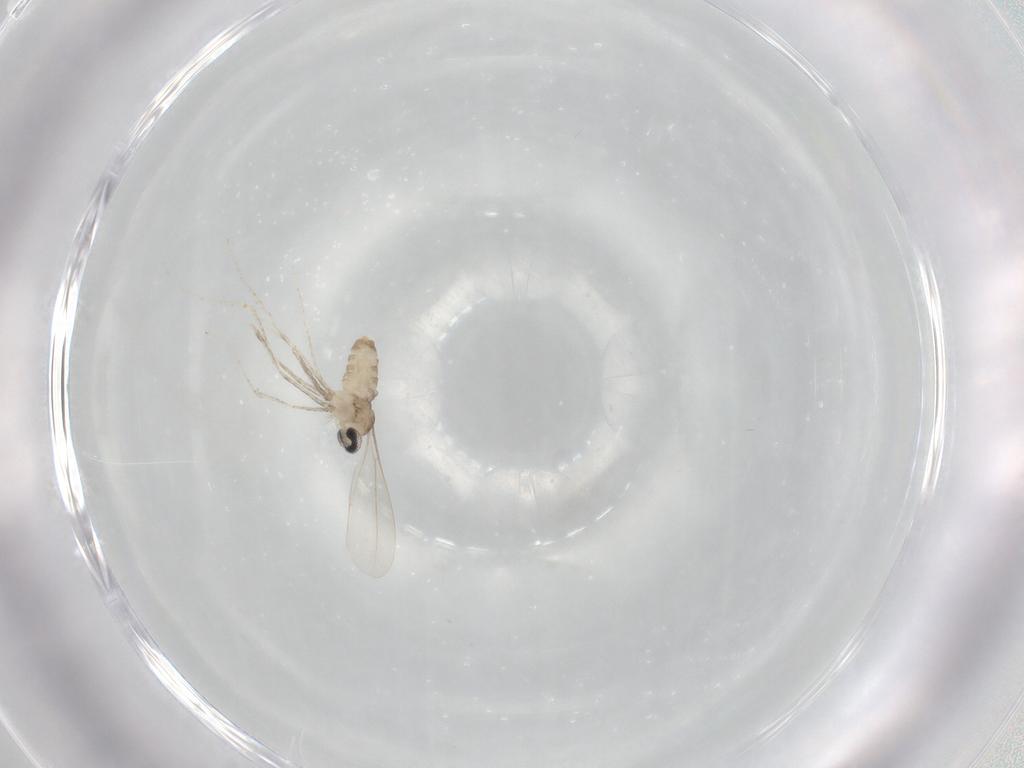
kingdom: Animalia
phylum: Arthropoda
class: Insecta
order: Diptera
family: Cecidomyiidae
